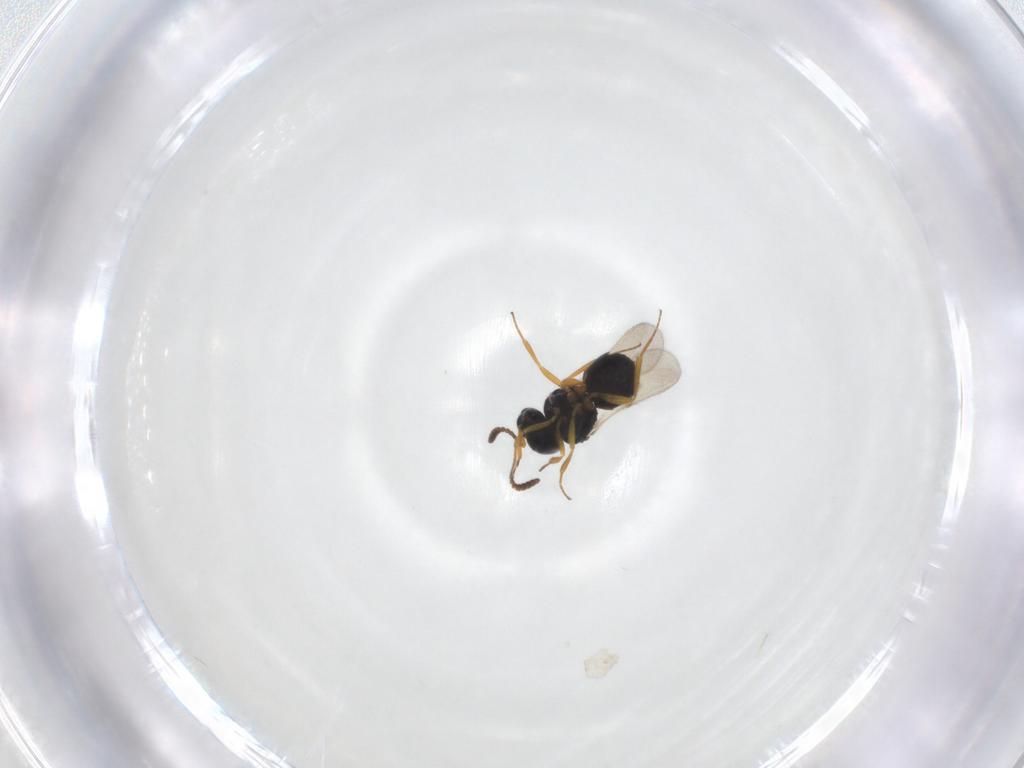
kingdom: Animalia
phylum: Arthropoda
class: Insecta
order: Hymenoptera
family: Scelionidae
